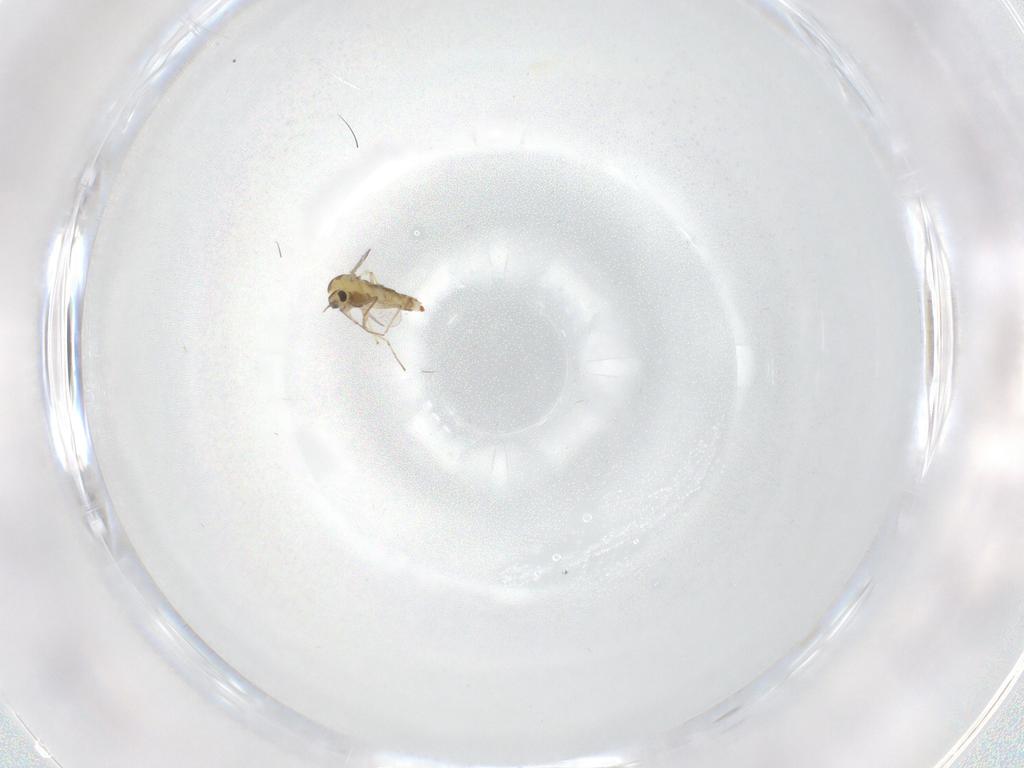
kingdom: Animalia
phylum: Arthropoda
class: Insecta
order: Diptera
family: Chironomidae
